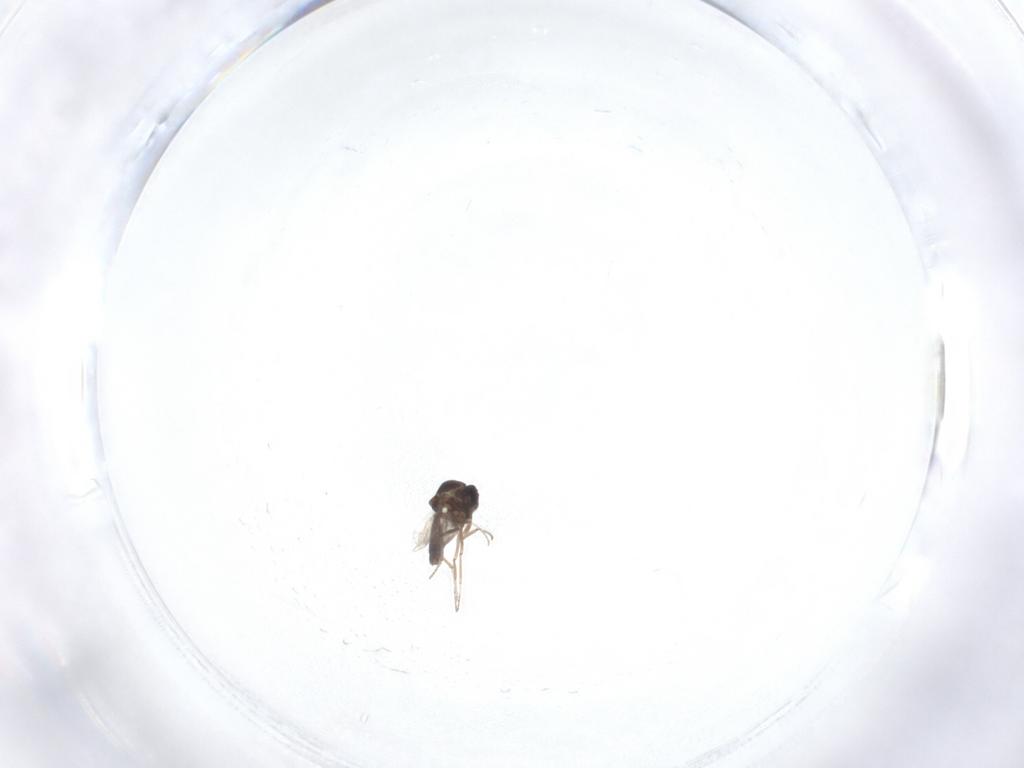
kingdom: Animalia
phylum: Arthropoda
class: Insecta
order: Diptera
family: Ceratopogonidae
